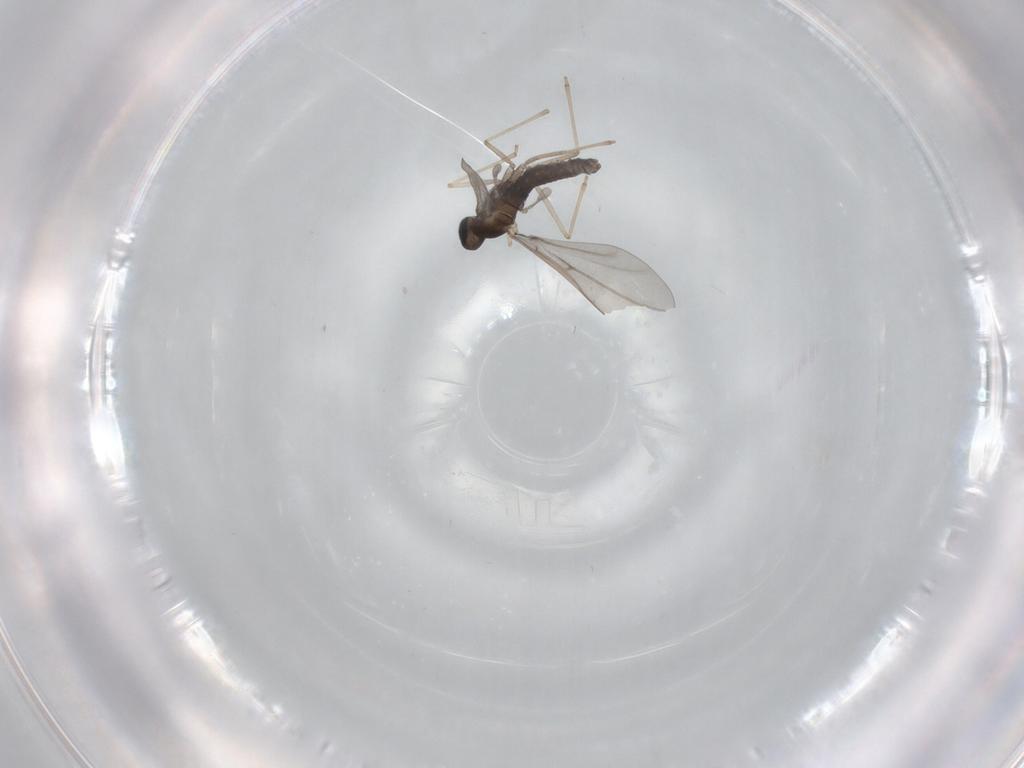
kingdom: Animalia
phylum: Arthropoda
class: Insecta
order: Diptera
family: Cecidomyiidae
